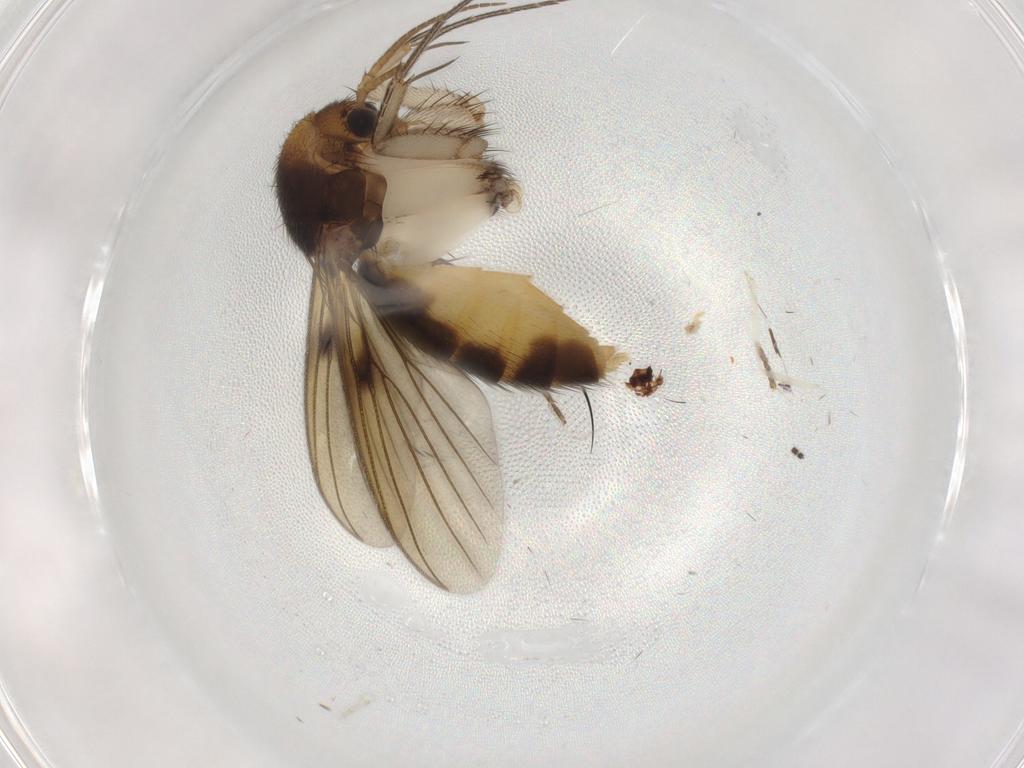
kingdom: Animalia
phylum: Arthropoda
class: Insecta
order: Diptera
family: Mycetophilidae
